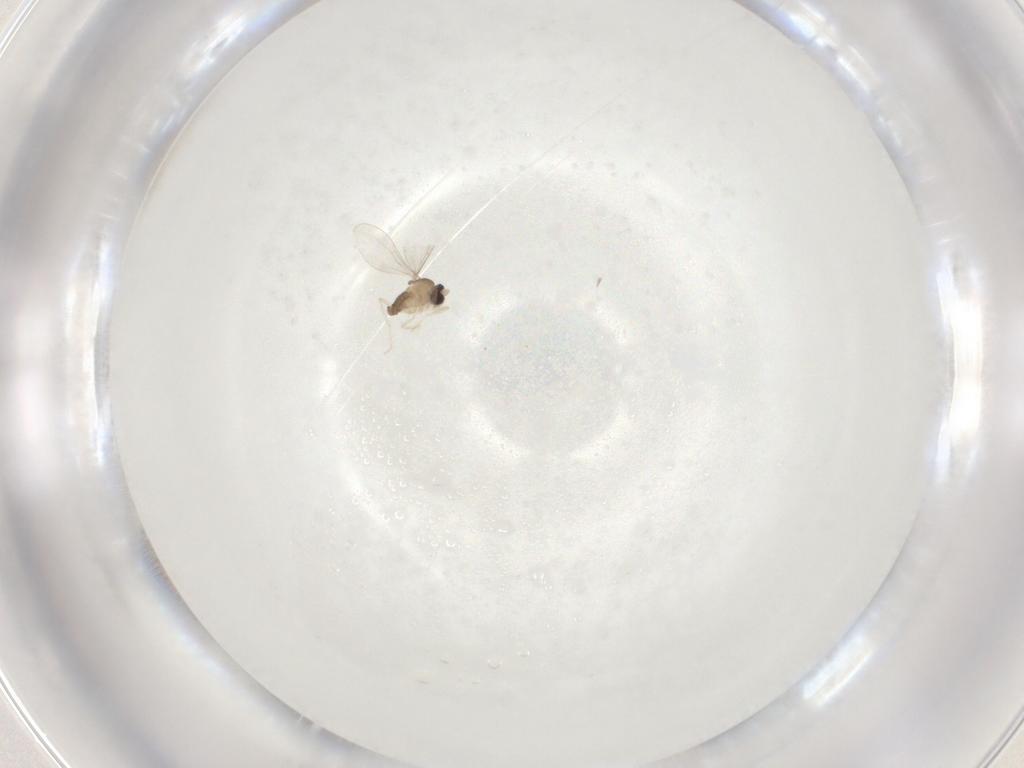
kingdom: Animalia
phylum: Arthropoda
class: Insecta
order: Diptera
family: Cecidomyiidae
